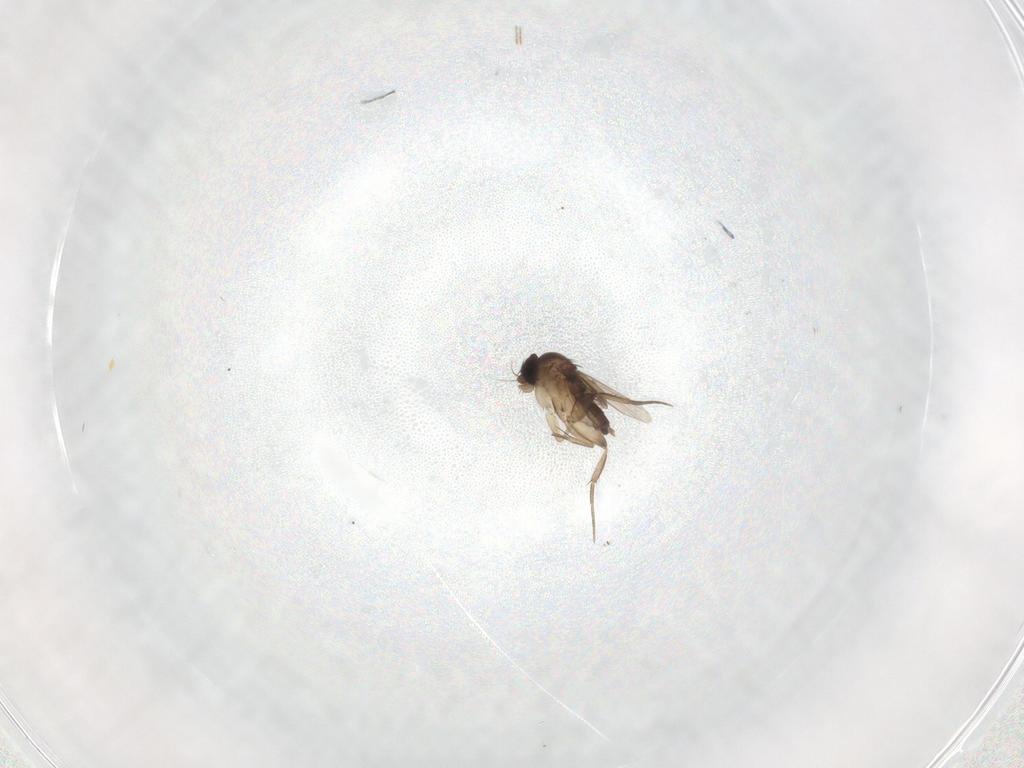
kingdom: Animalia
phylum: Arthropoda
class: Insecta
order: Diptera
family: Phoridae
